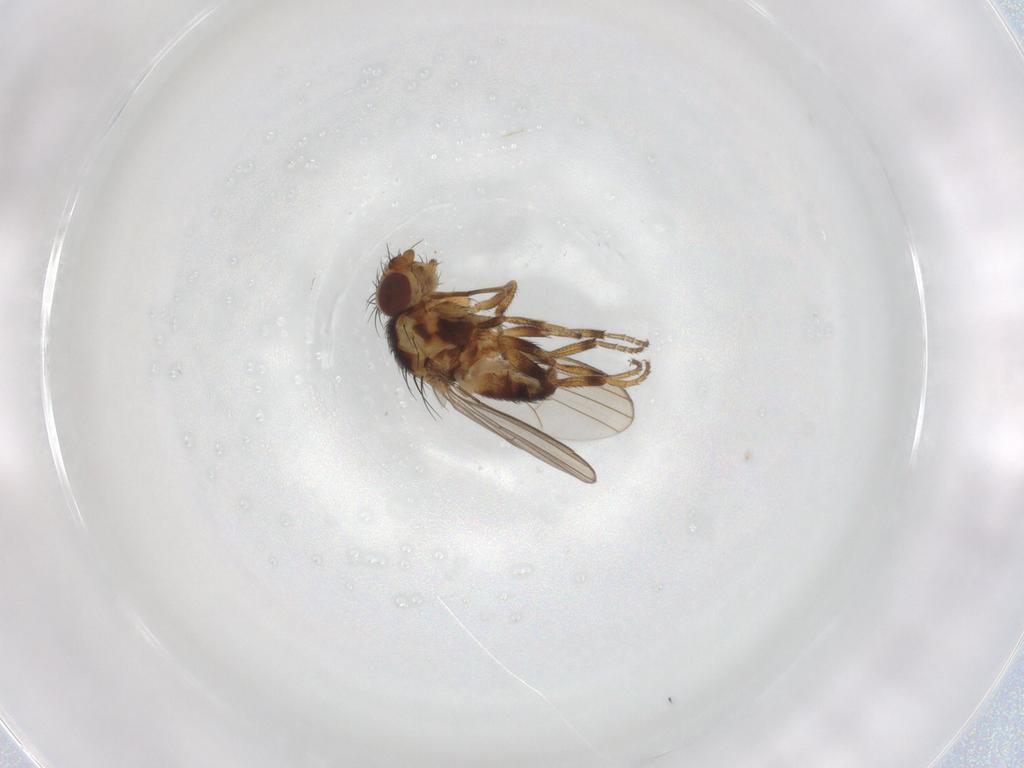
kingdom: Animalia
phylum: Arthropoda
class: Insecta
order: Diptera
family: Milichiidae
